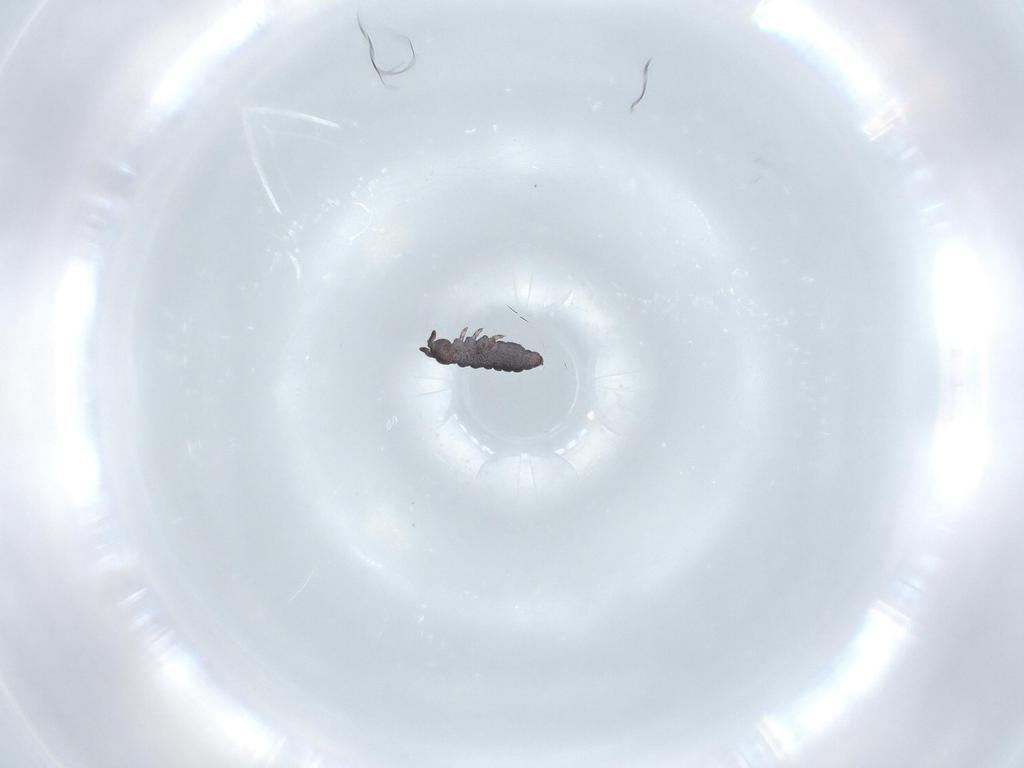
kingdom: Animalia
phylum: Arthropoda
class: Collembola
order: Poduromorpha
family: Hypogastruridae
